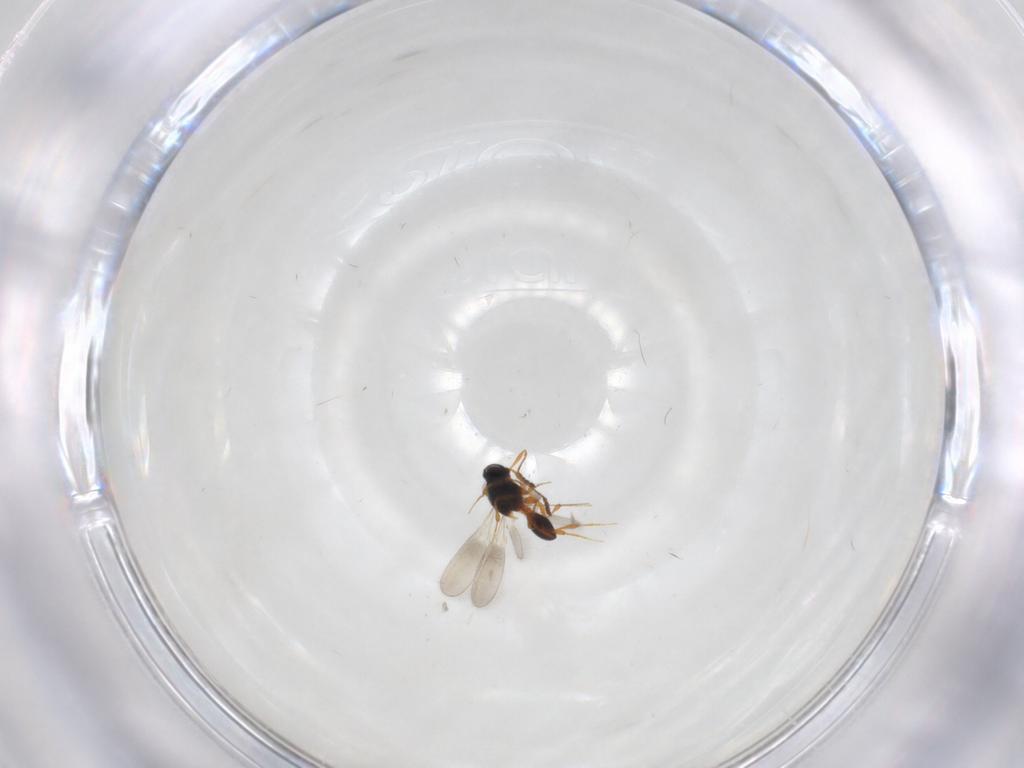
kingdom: Animalia
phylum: Arthropoda
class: Insecta
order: Hymenoptera
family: Platygastridae
